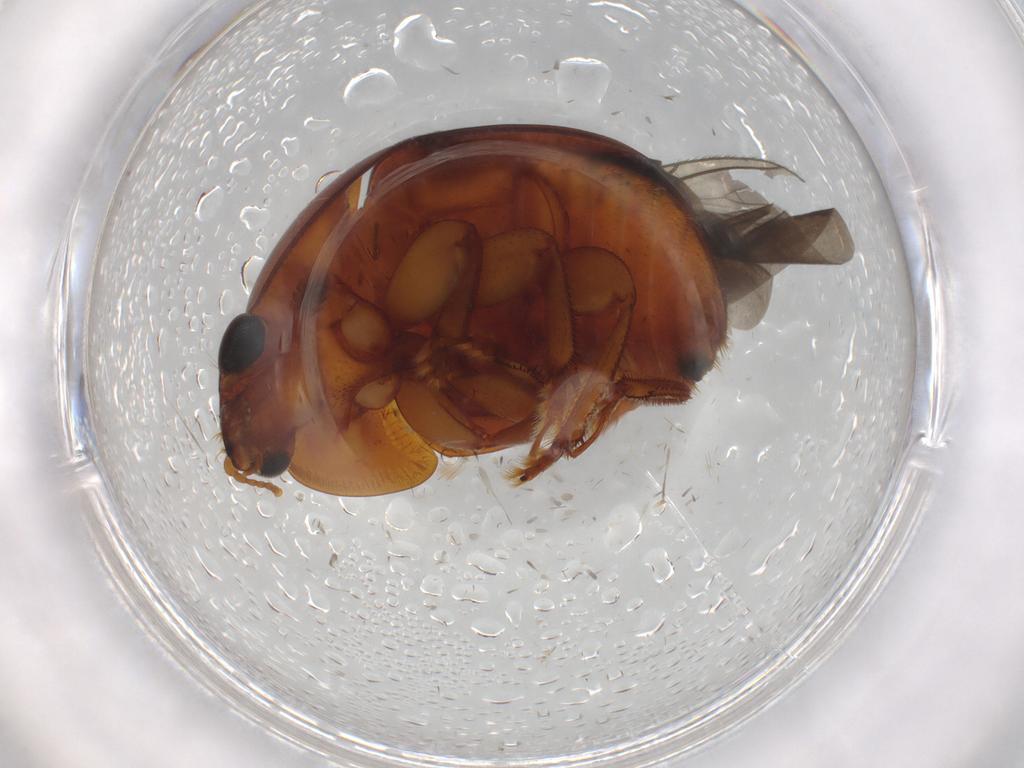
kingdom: Animalia
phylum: Arthropoda
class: Insecta
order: Coleoptera
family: Nitidulidae
